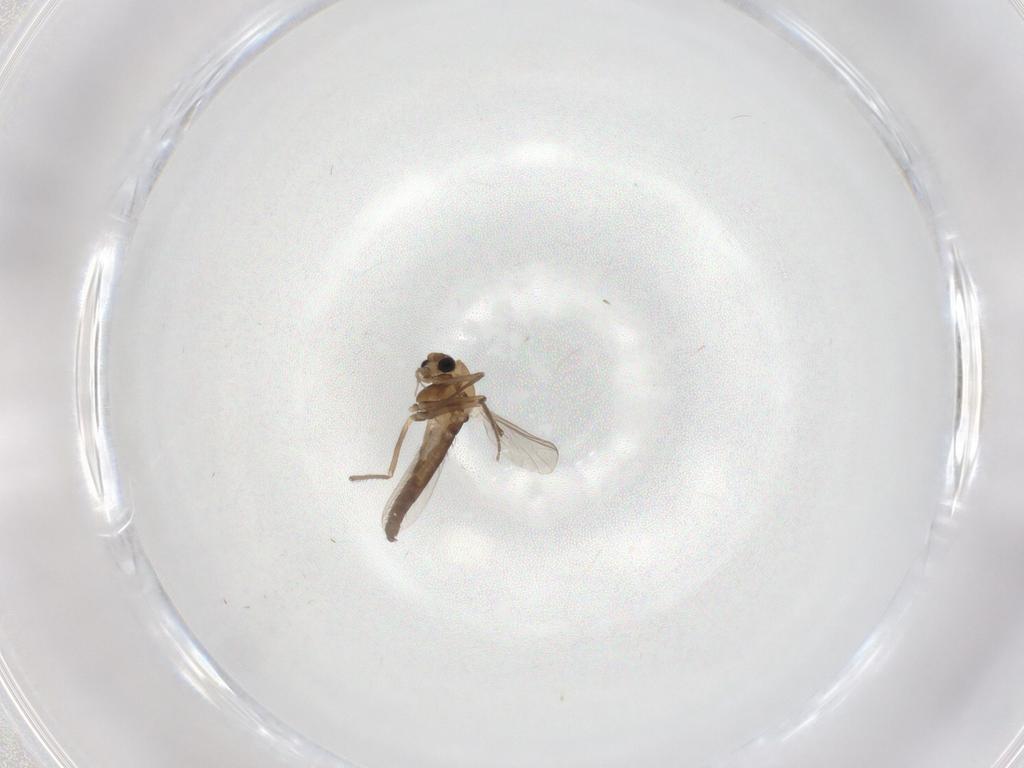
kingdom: Animalia
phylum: Arthropoda
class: Insecta
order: Diptera
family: Chironomidae
